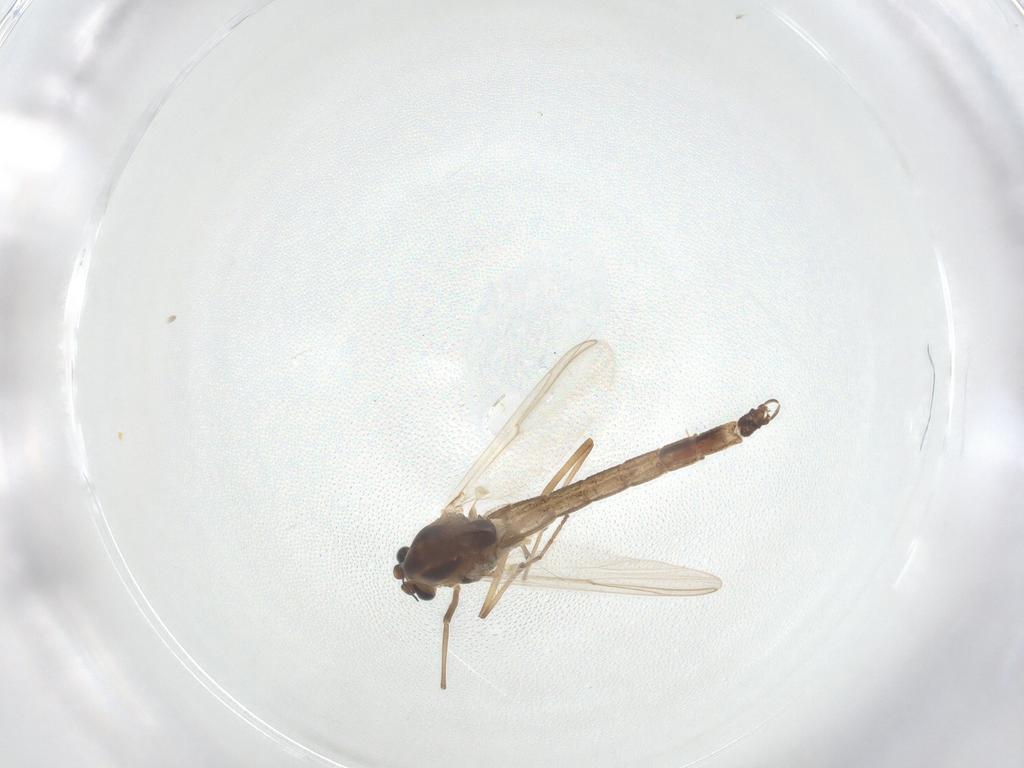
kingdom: Animalia
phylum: Arthropoda
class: Insecta
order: Diptera
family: Chironomidae
